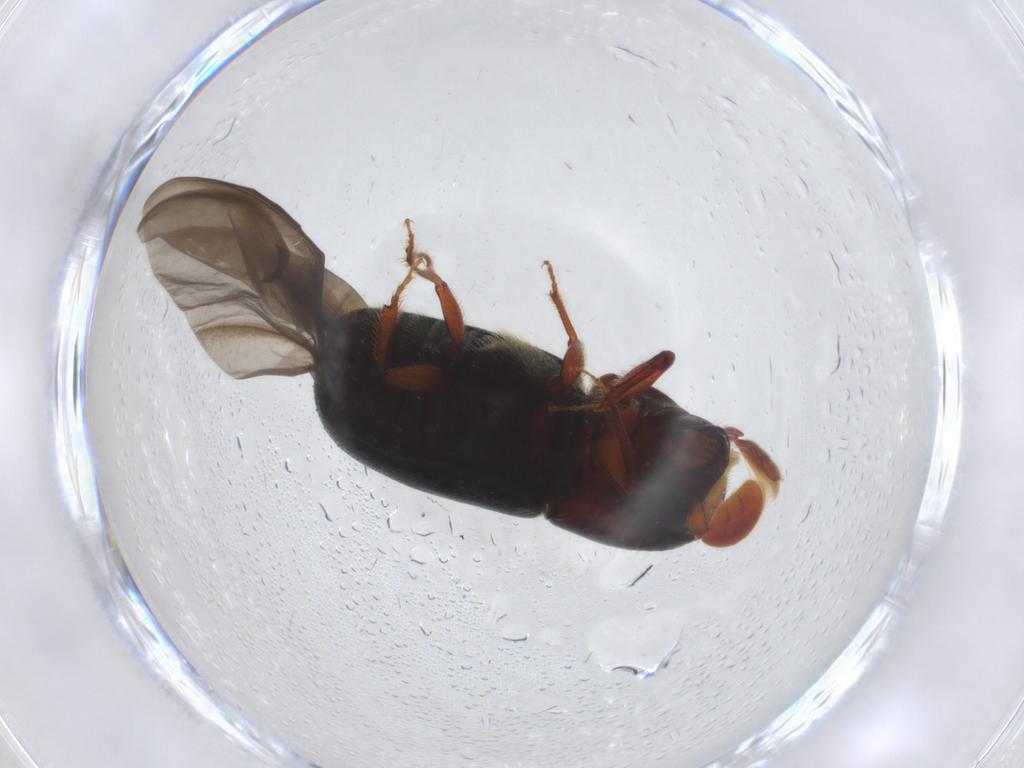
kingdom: Animalia
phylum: Arthropoda
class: Insecta
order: Coleoptera
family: Curculionidae
